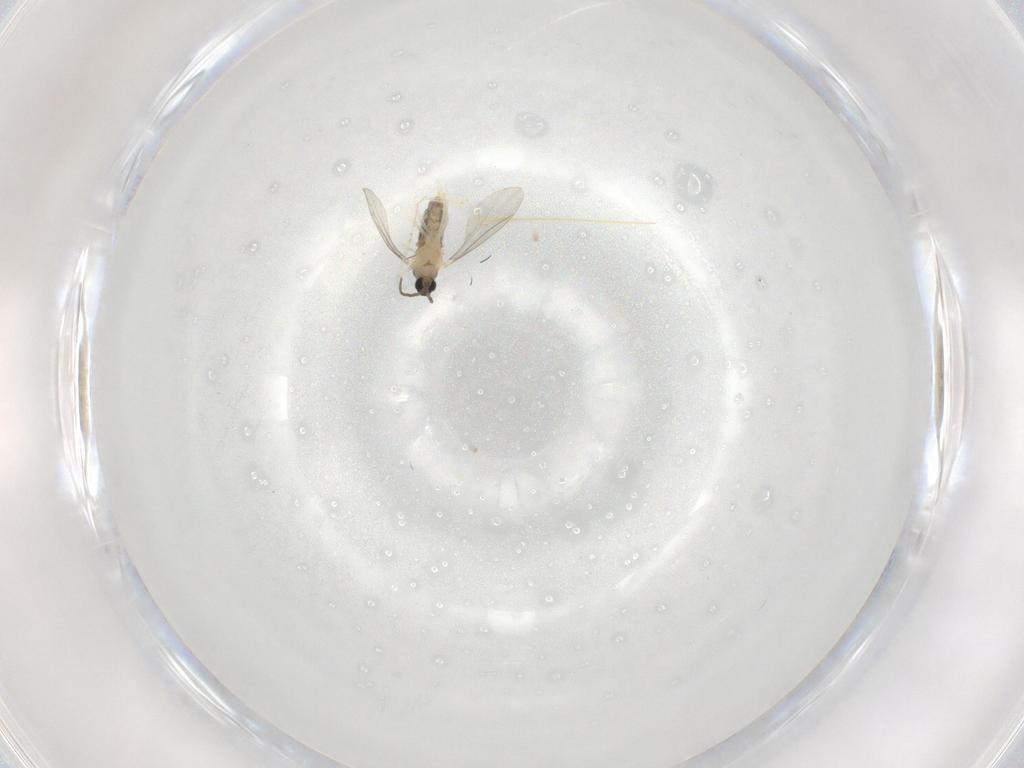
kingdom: Animalia
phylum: Arthropoda
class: Insecta
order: Diptera
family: Cecidomyiidae
